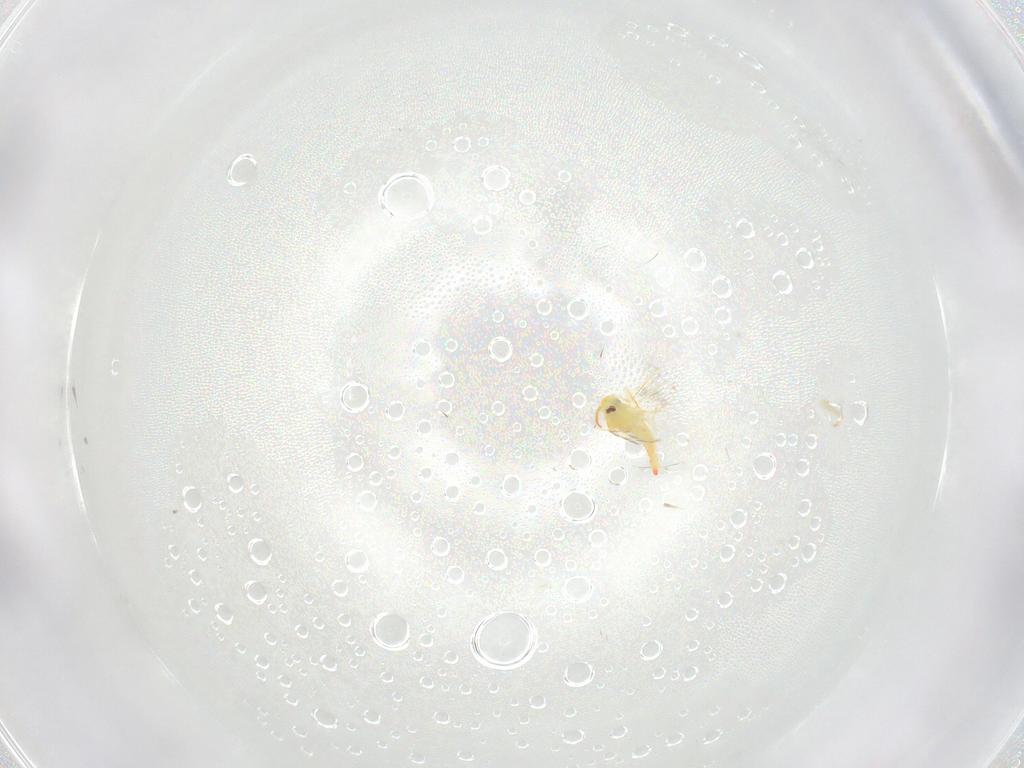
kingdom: Animalia
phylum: Arthropoda
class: Insecta
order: Hemiptera
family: Aleyrodidae
